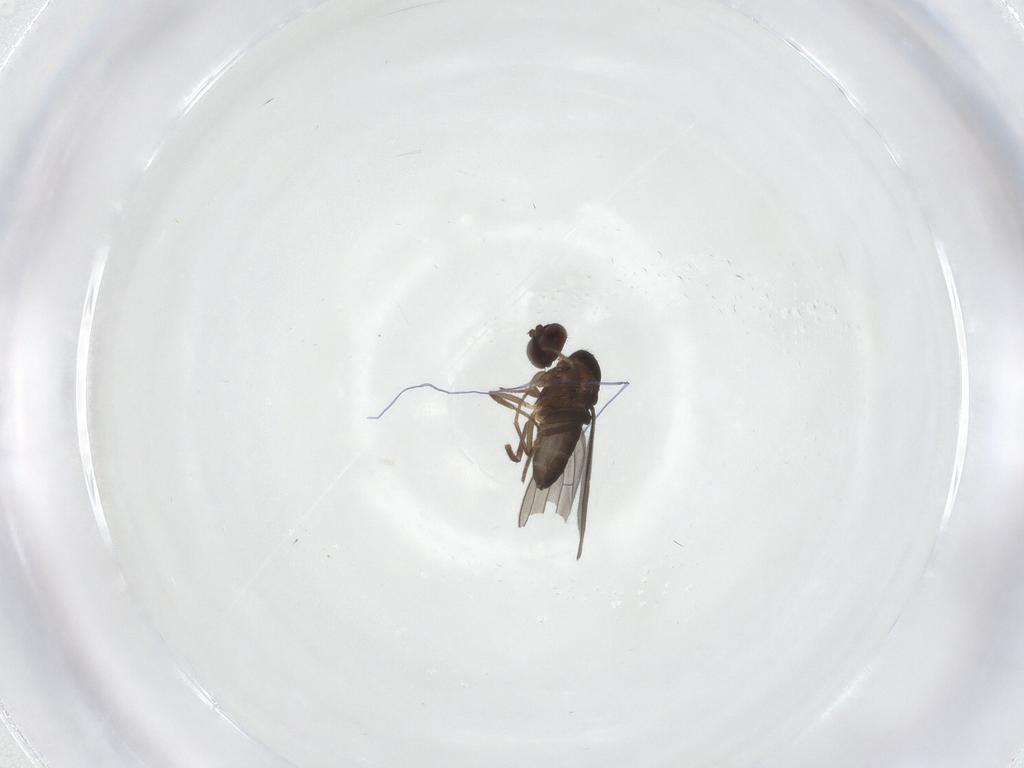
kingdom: Animalia
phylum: Arthropoda
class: Insecta
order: Diptera
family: Sciaridae
